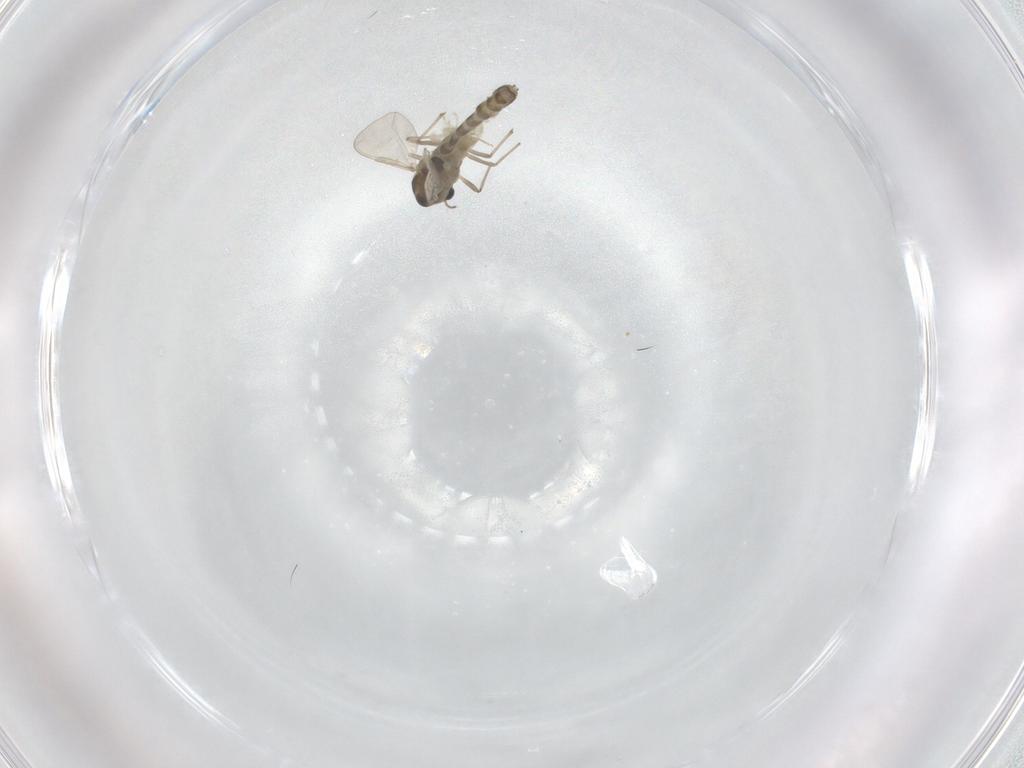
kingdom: Animalia
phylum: Arthropoda
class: Insecta
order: Diptera
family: Chironomidae
